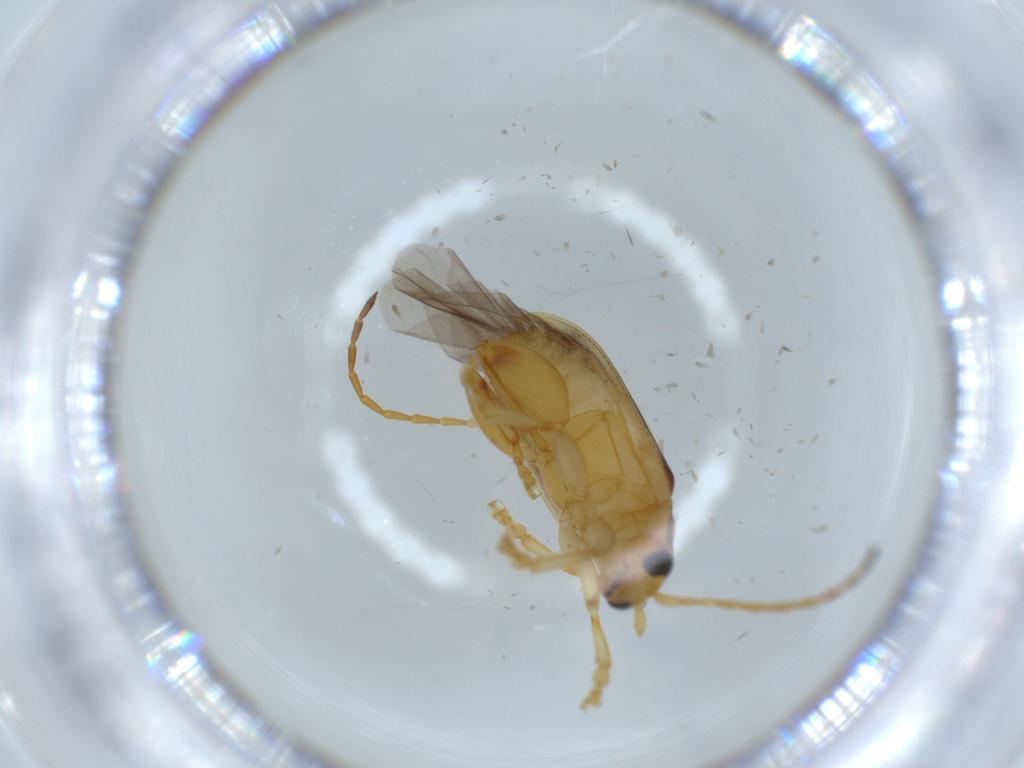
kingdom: Animalia
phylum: Arthropoda
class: Insecta
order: Coleoptera
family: Chrysomelidae
